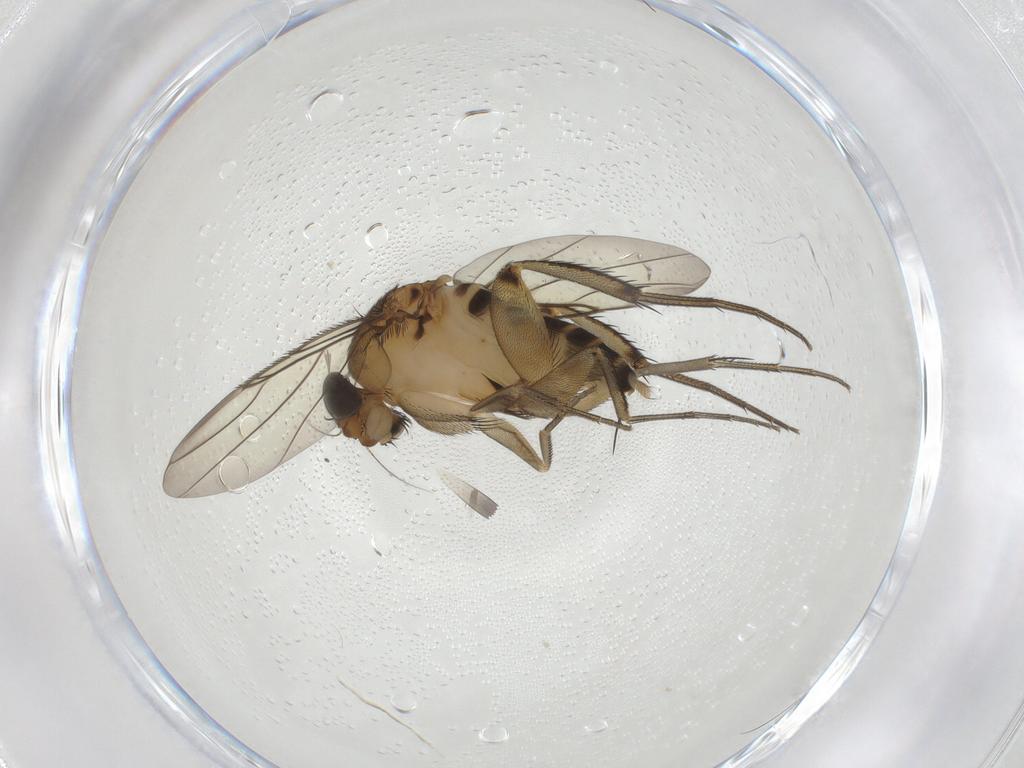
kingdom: Animalia
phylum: Arthropoda
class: Insecta
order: Diptera
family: Phoridae
